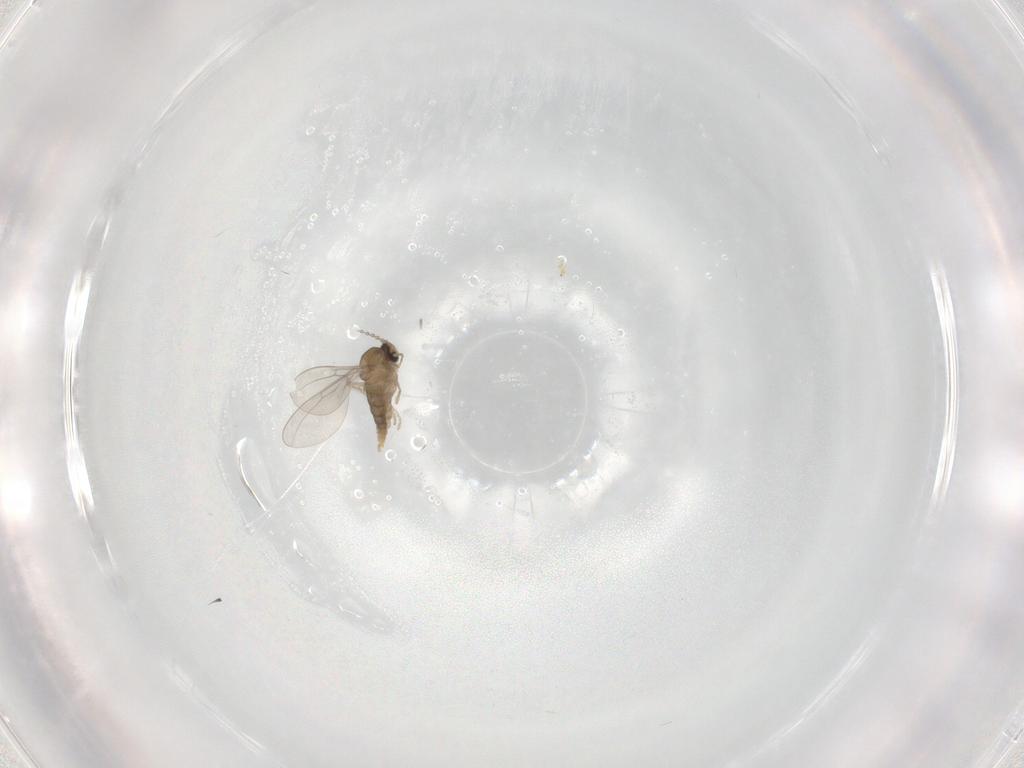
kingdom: Animalia
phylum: Arthropoda
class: Insecta
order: Diptera
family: Cecidomyiidae
